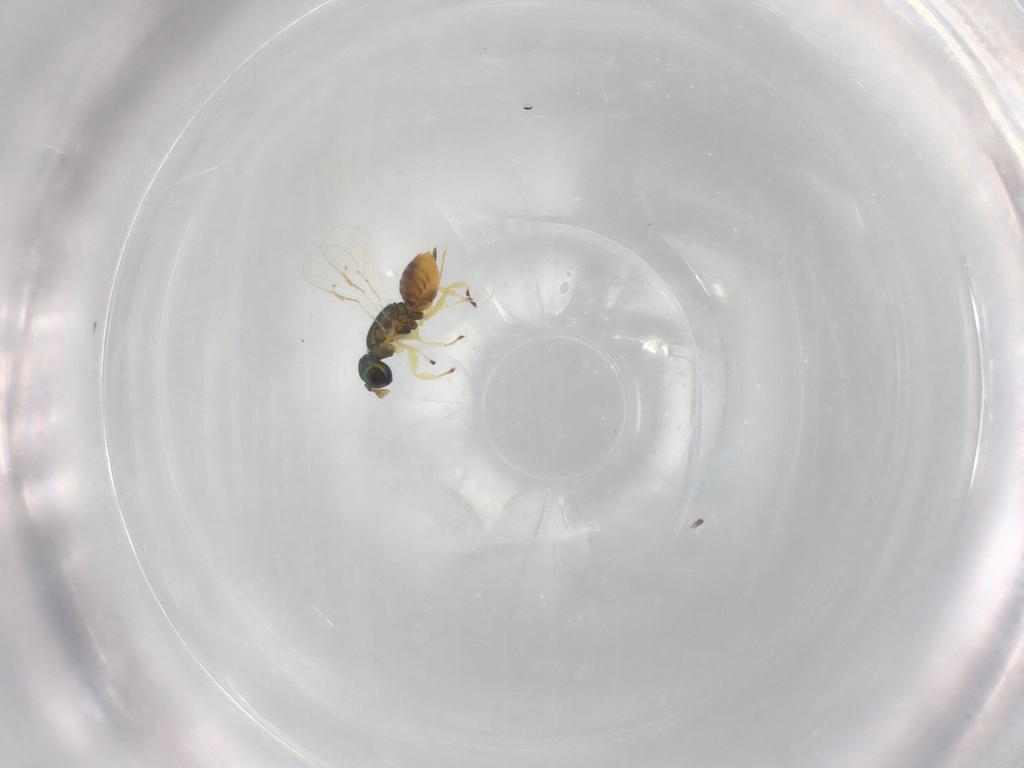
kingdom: Animalia
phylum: Arthropoda
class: Insecta
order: Hymenoptera
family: Eulophidae
